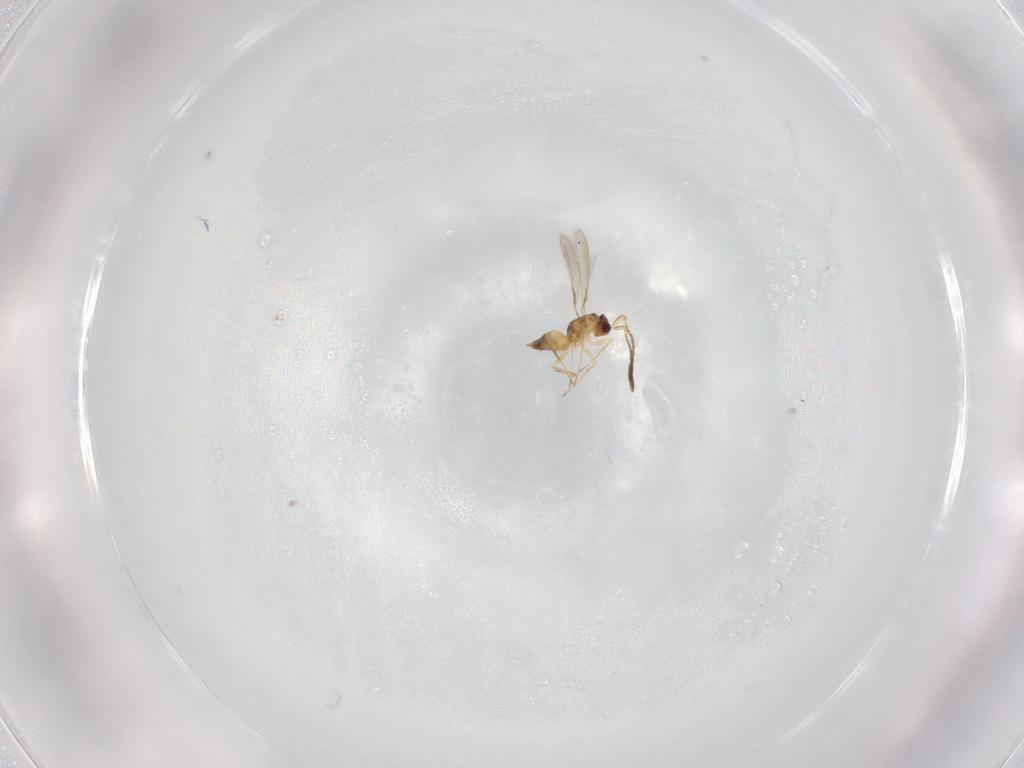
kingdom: Animalia
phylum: Arthropoda
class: Insecta
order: Hymenoptera
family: Mymaridae
